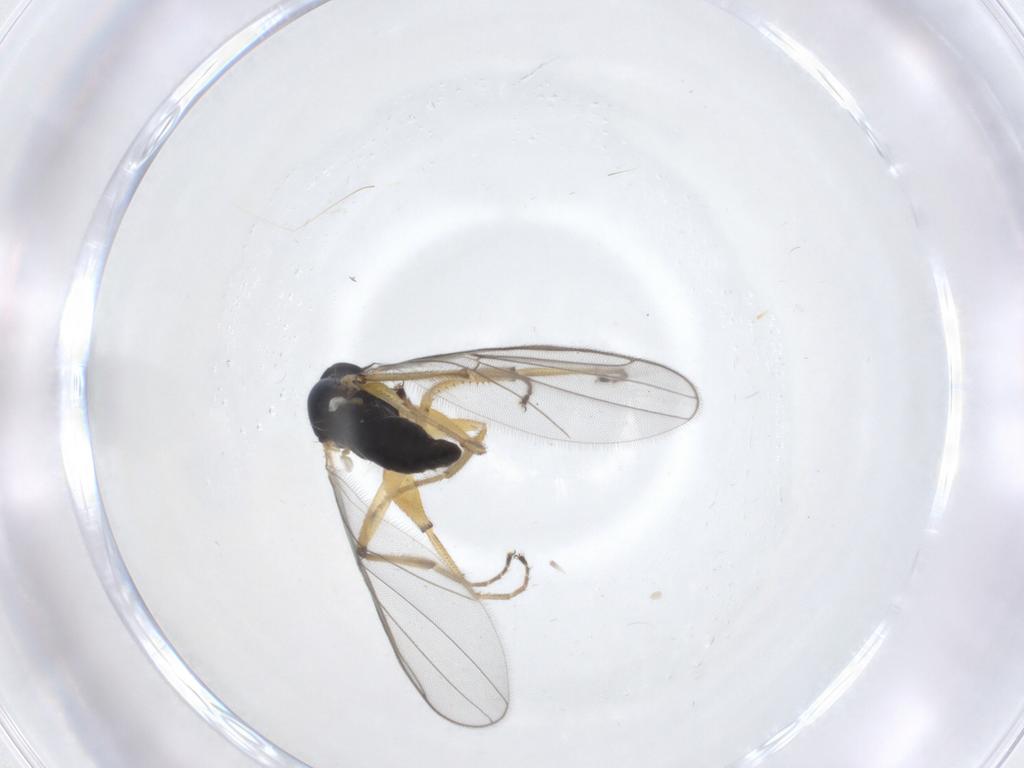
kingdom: Animalia
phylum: Arthropoda
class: Insecta
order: Diptera
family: Hybotidae
